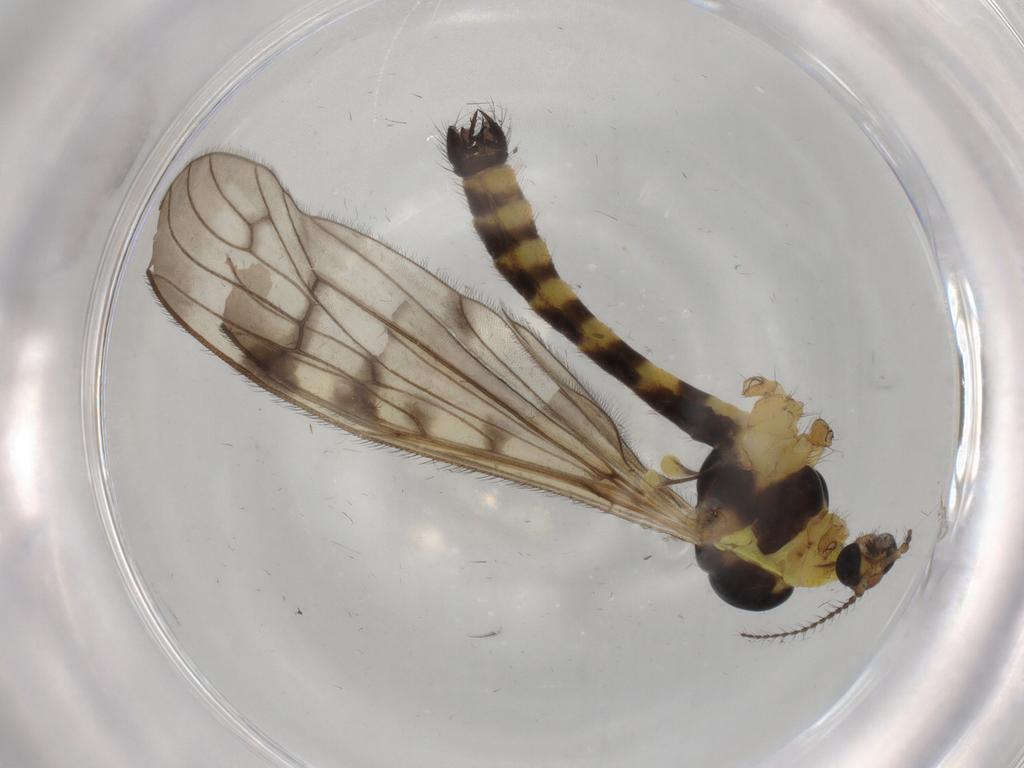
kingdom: Animalia
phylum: Arthropoda
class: Insecta
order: Diptera
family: Limoniidae
